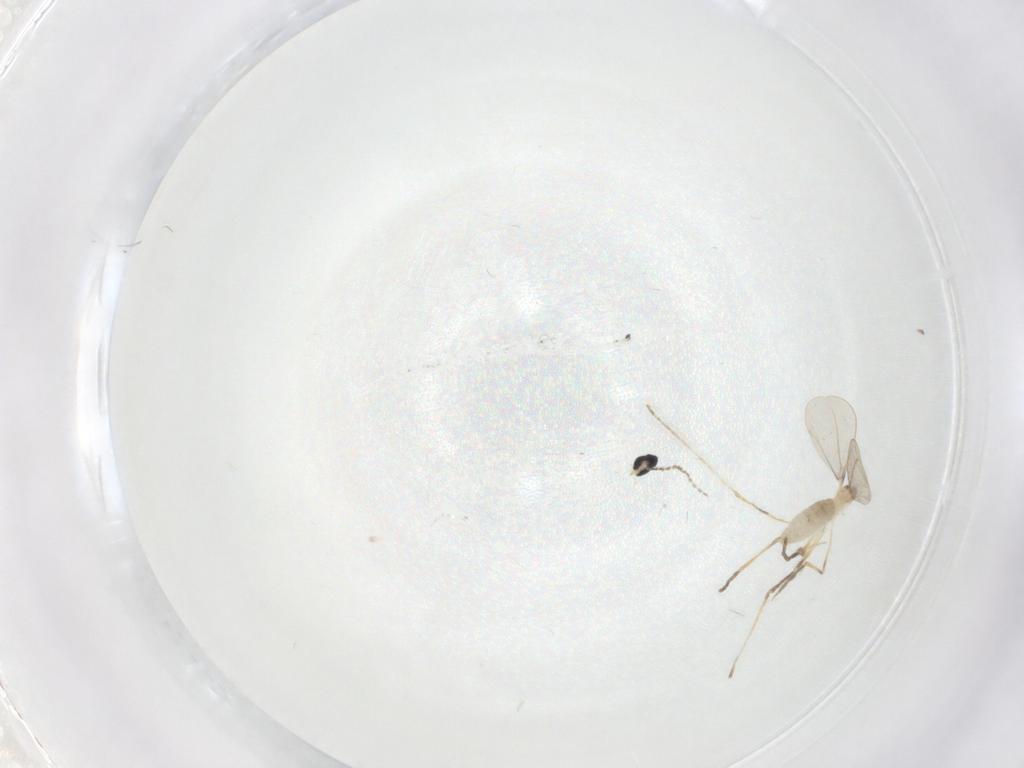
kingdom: Animalia
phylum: Arthropoda
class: Insecta
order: Diptera
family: Cecidomyiidae
